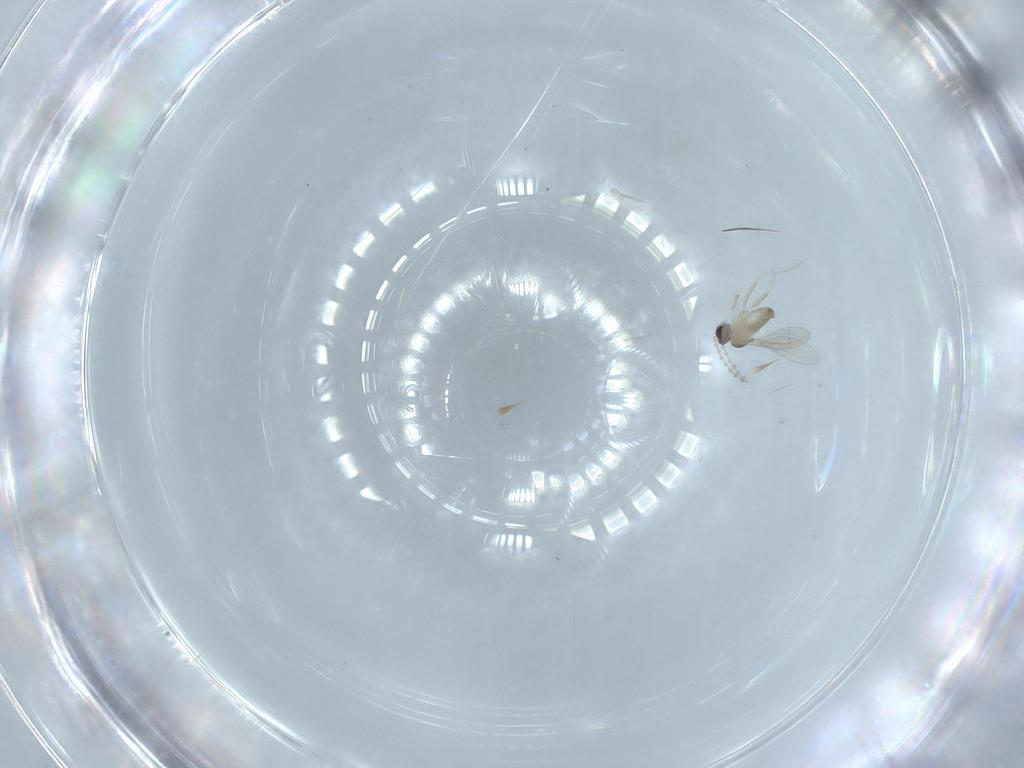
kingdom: Animalia
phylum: Arthropoda
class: Insecta
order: Diptera
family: Cecidomyiidae
